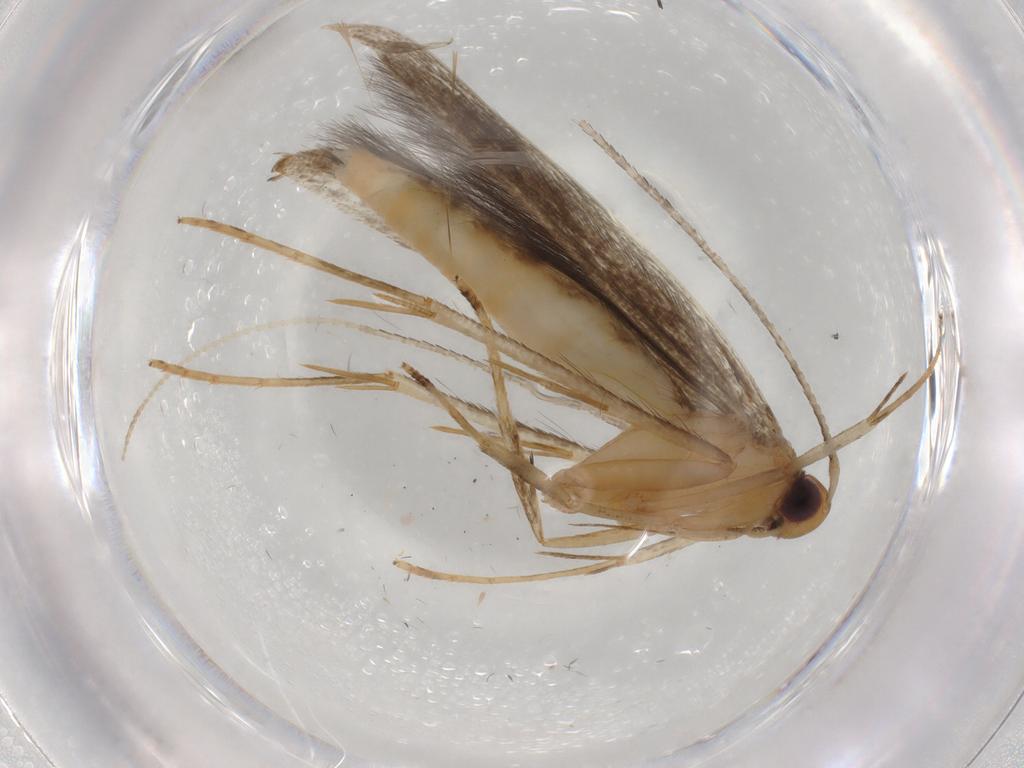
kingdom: Animalia
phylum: Arthropoda
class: Insecta
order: Lepidoptera
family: Pterolonchidae
